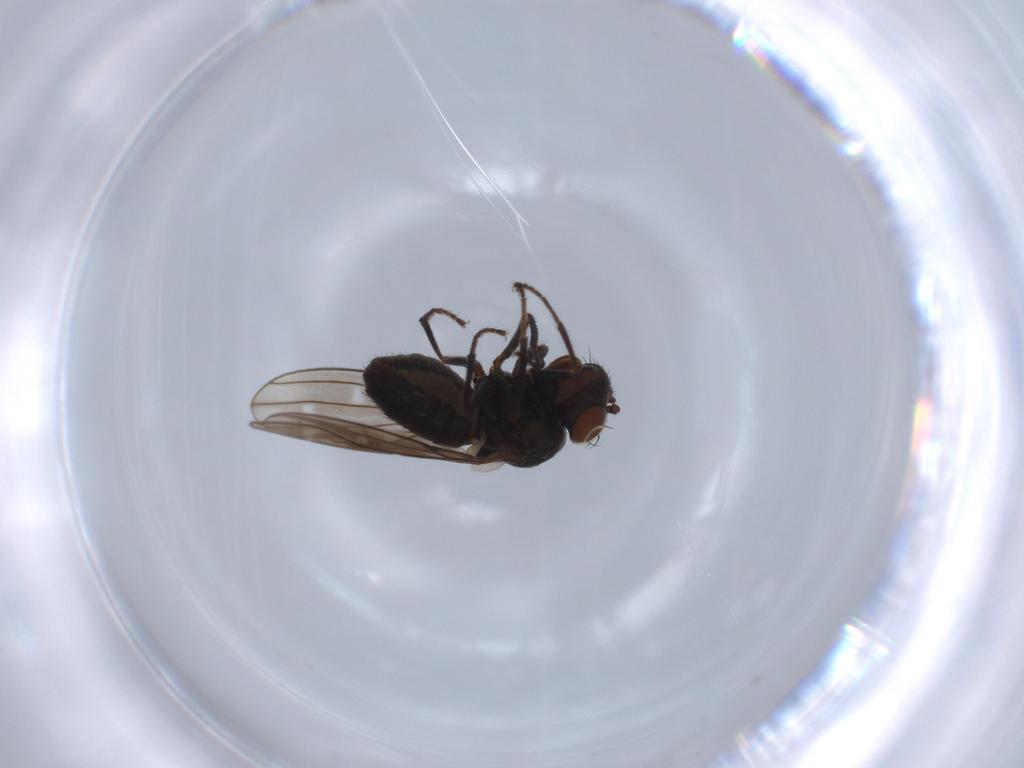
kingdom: Animalia
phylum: Arthropoda
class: Insecta
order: Diptera
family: Ephydridae
